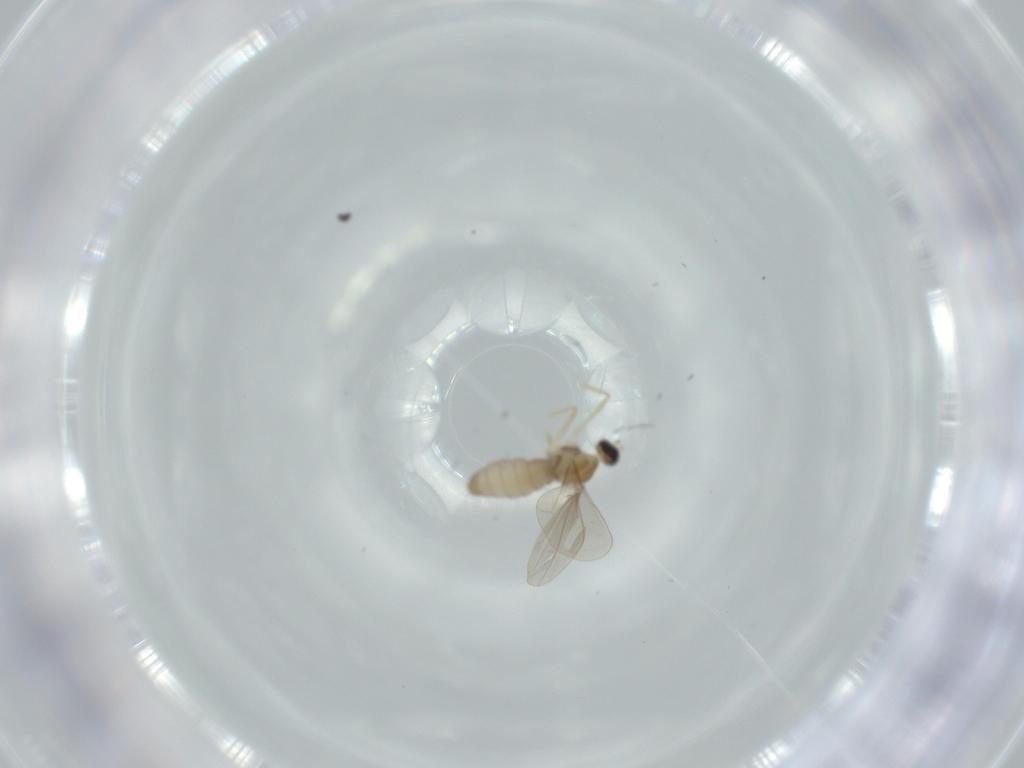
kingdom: Animalia
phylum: Arthropoda
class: Insecta
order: Diptera
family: Cecidomyiidae
